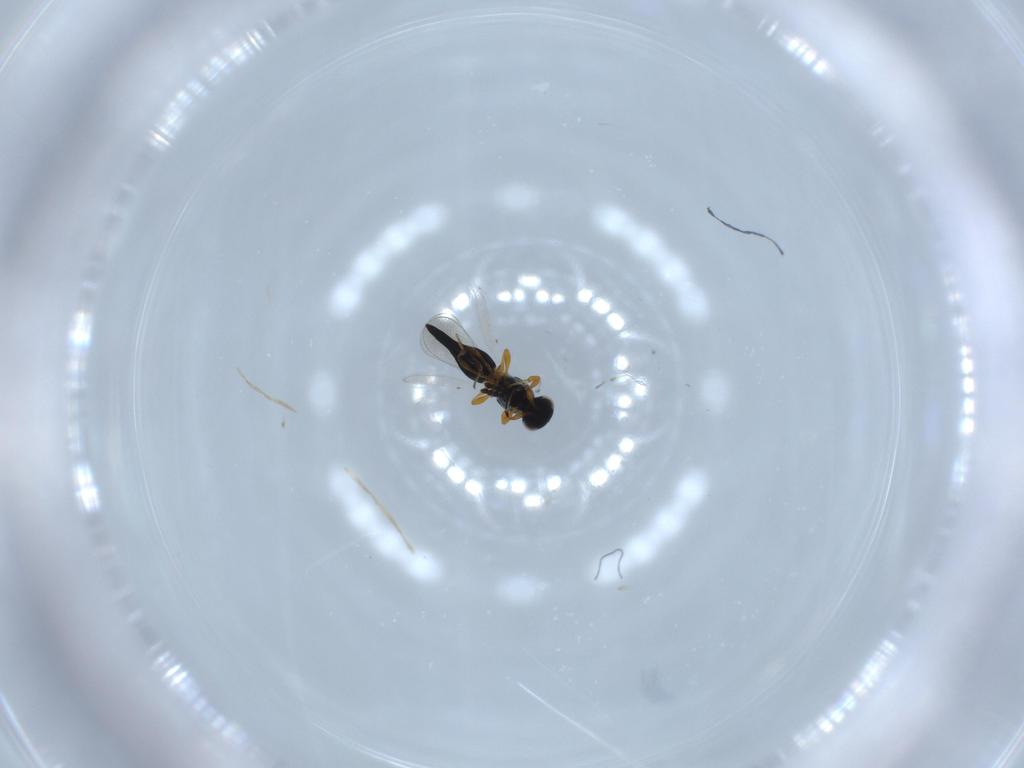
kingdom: Animalia
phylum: Arthropoda
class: Insecta
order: Hymenoptera
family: Platygastridae
